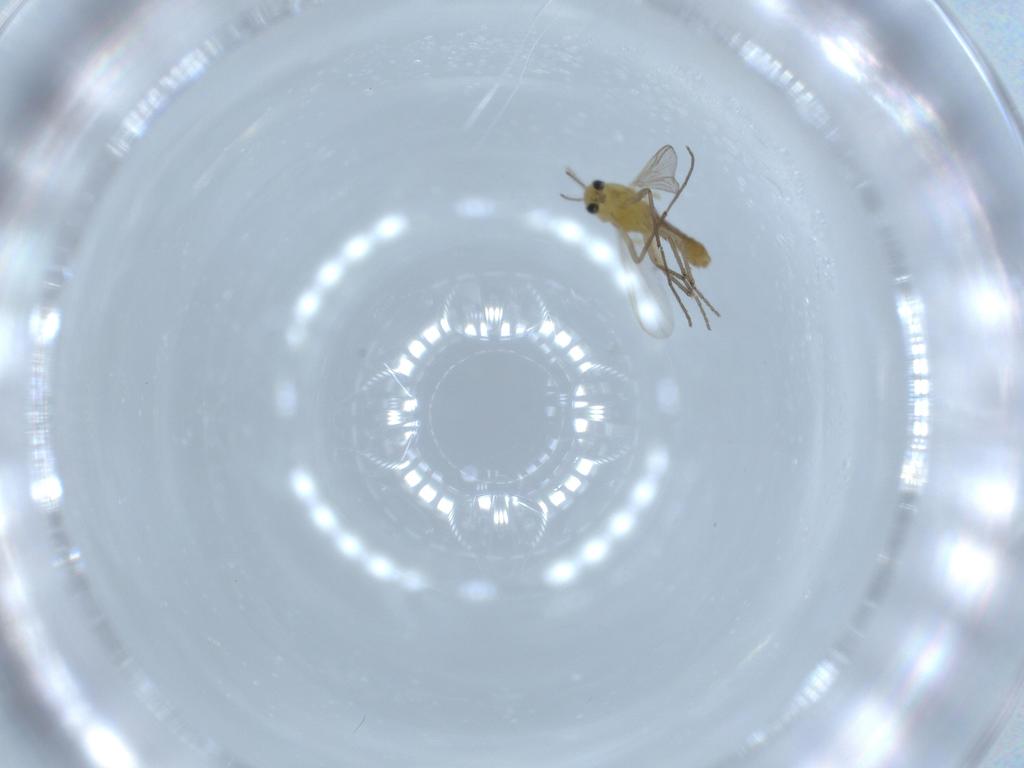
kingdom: Animalia
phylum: Arthropoda
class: Insecta
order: Diptera
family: Chironomidae
